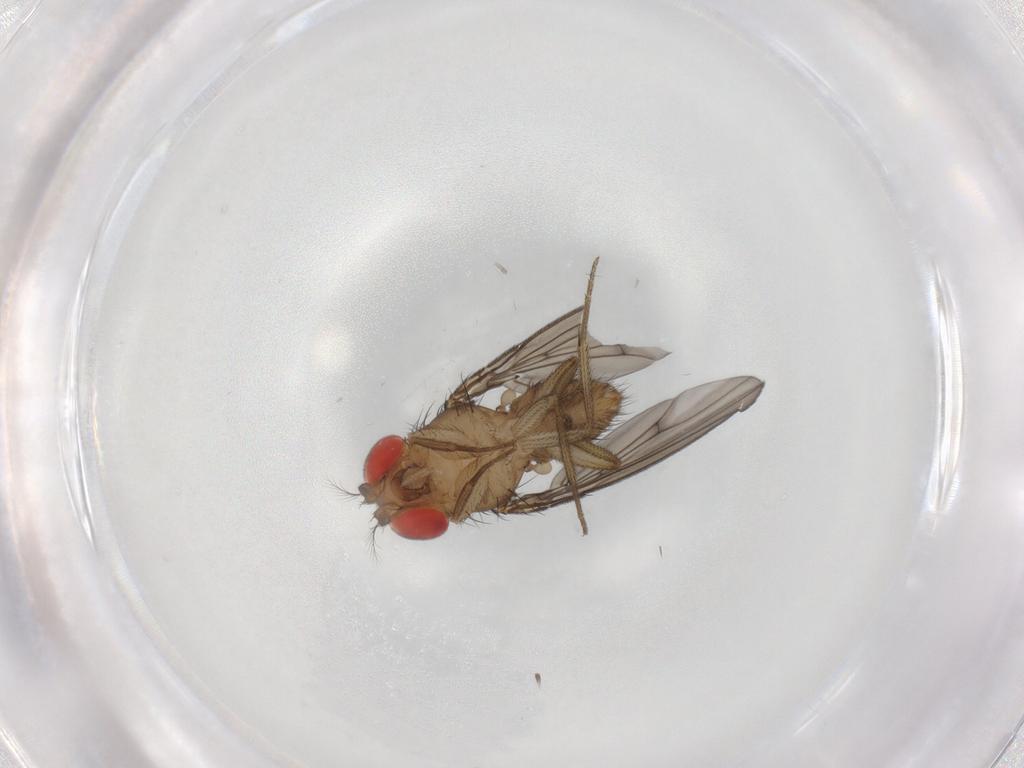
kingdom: Animalia
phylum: Arthropoda
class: Insecta
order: Diptera
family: Drosophilidae
